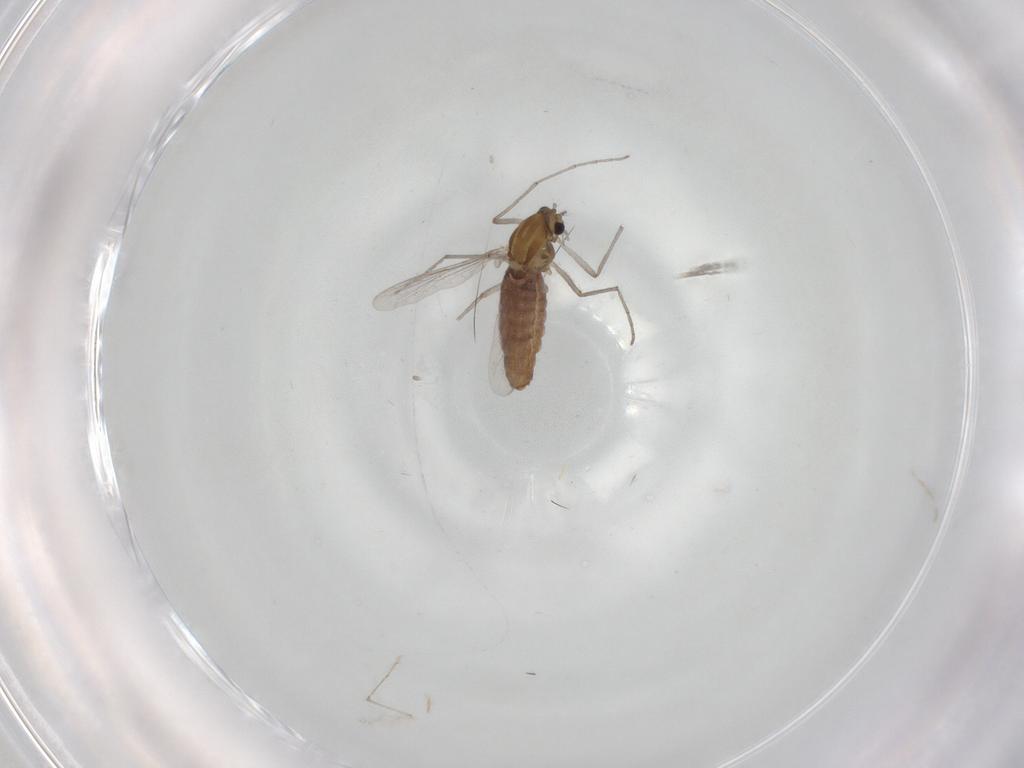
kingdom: Animalia
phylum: Arthropoda
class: Insecta
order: Diptera
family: Chironomidae
